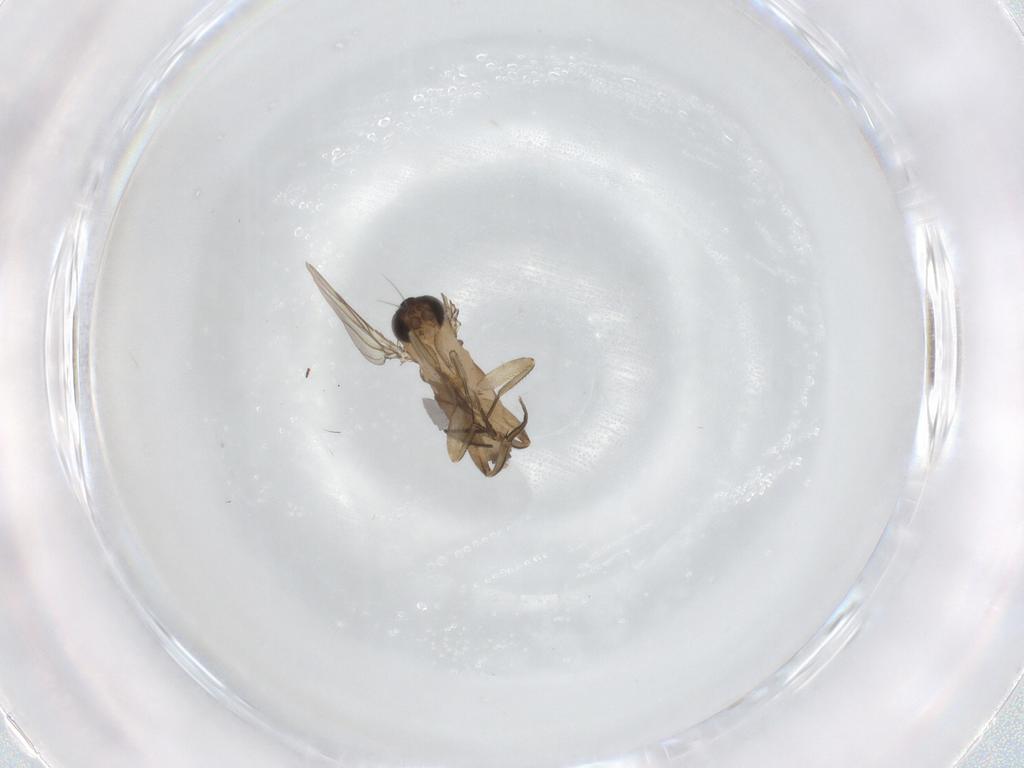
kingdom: Animalia
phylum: Arthropoda
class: Insecta
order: Diptera
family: Phoridae
